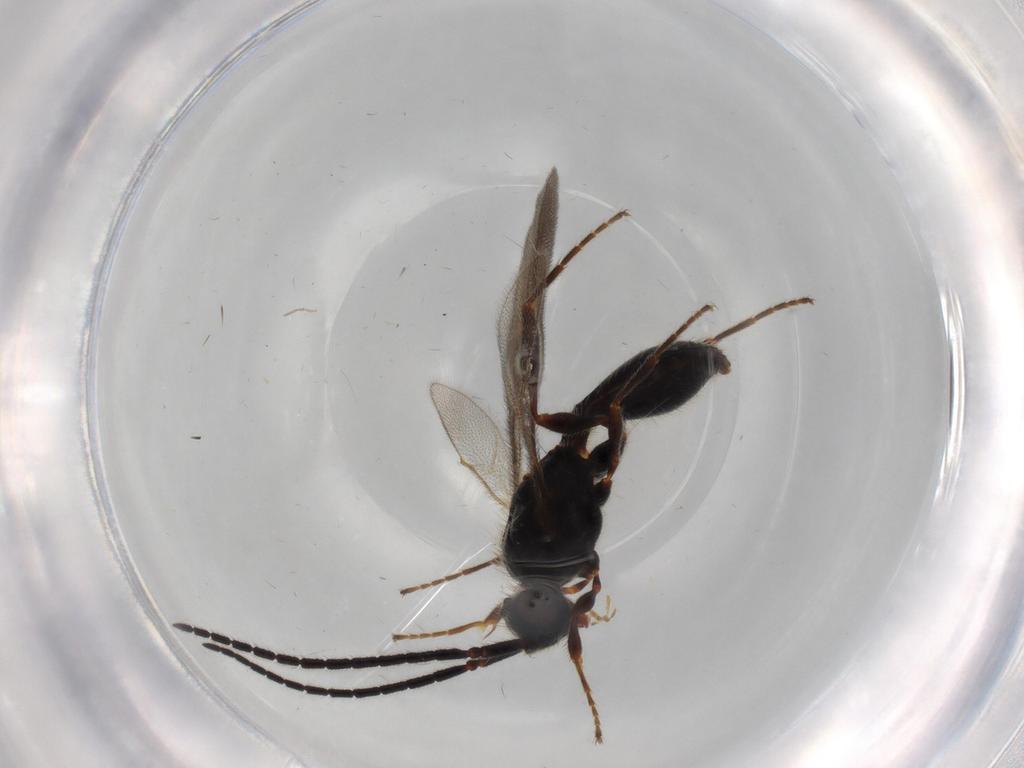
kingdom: Animalia
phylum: Arthropoda
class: Insecta
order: Hymenoptera
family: Diapriidae
